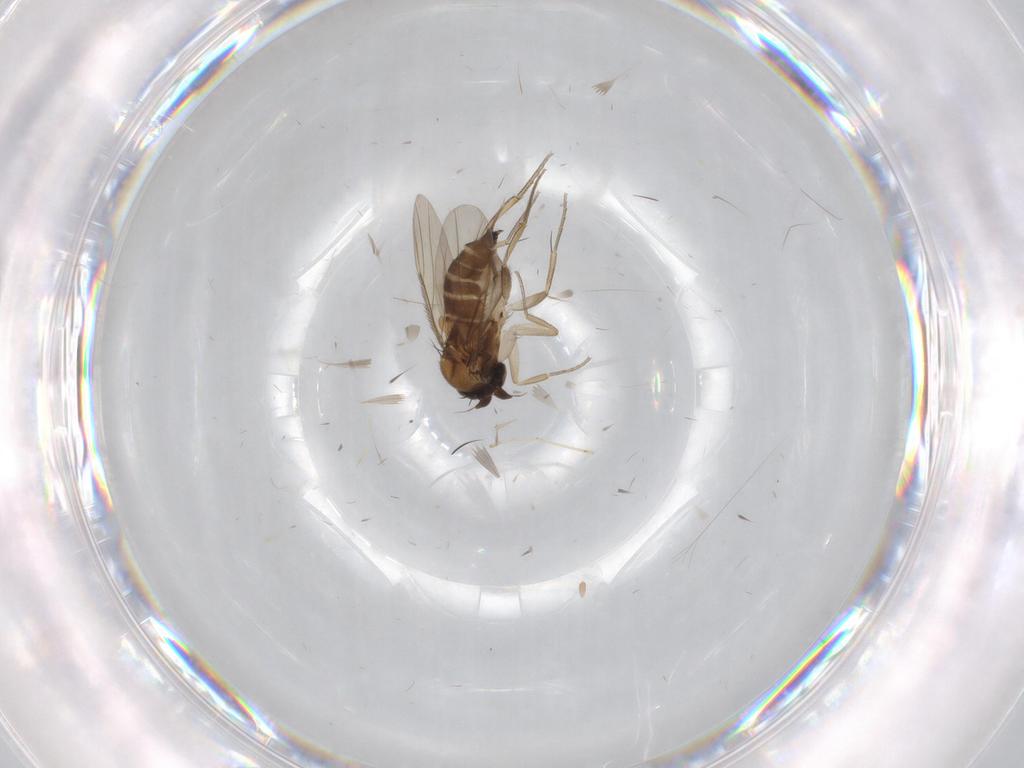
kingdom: Animalia
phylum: Arthropoda
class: Insecta
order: Diptera
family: Phoridae
